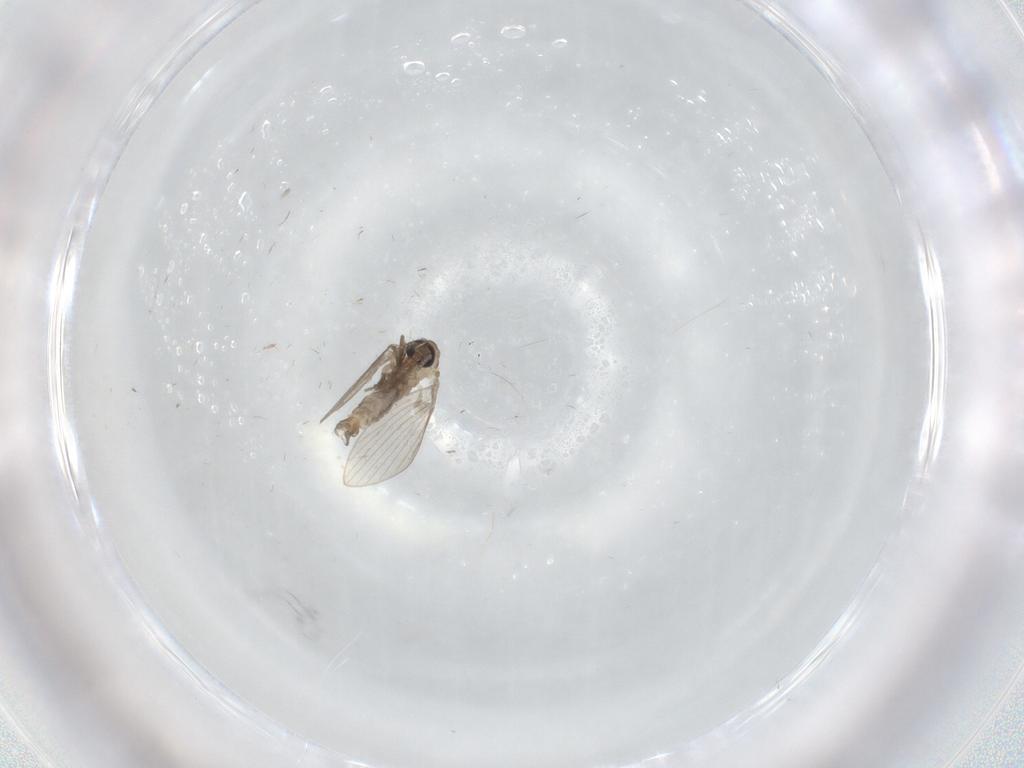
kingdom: Animalia
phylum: Arthropoda
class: Insecta
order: Diptera
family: Psychodidae
